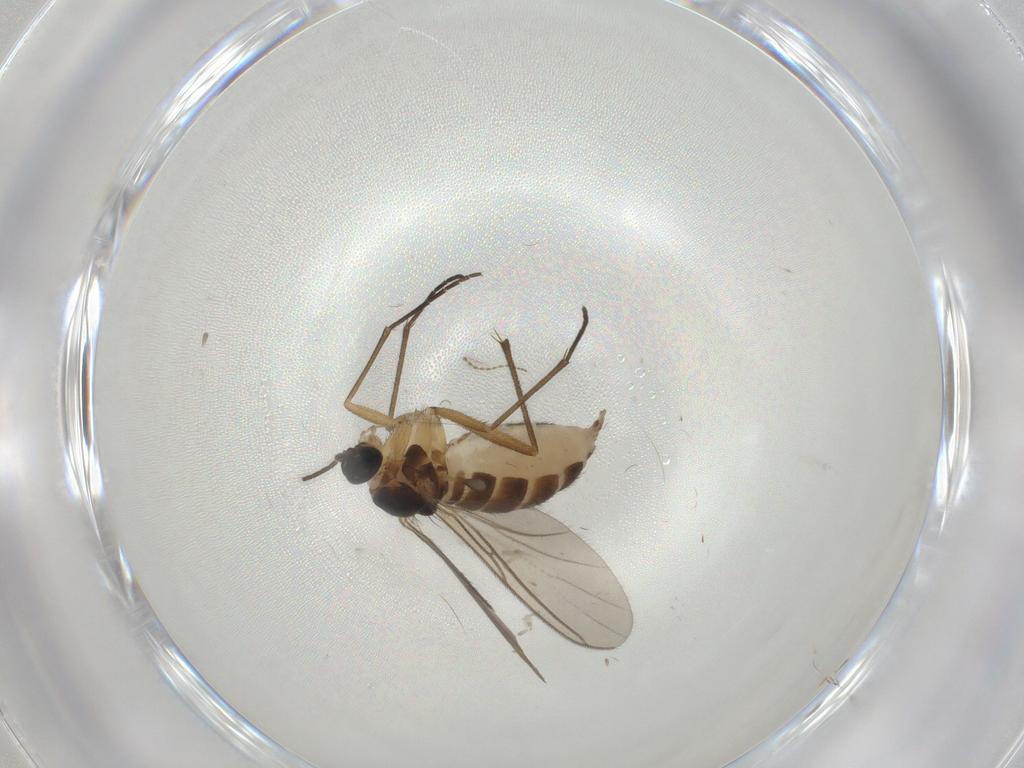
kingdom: Animalia
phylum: Arthropoda
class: Insecta
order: Diptera
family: Sciaridae
